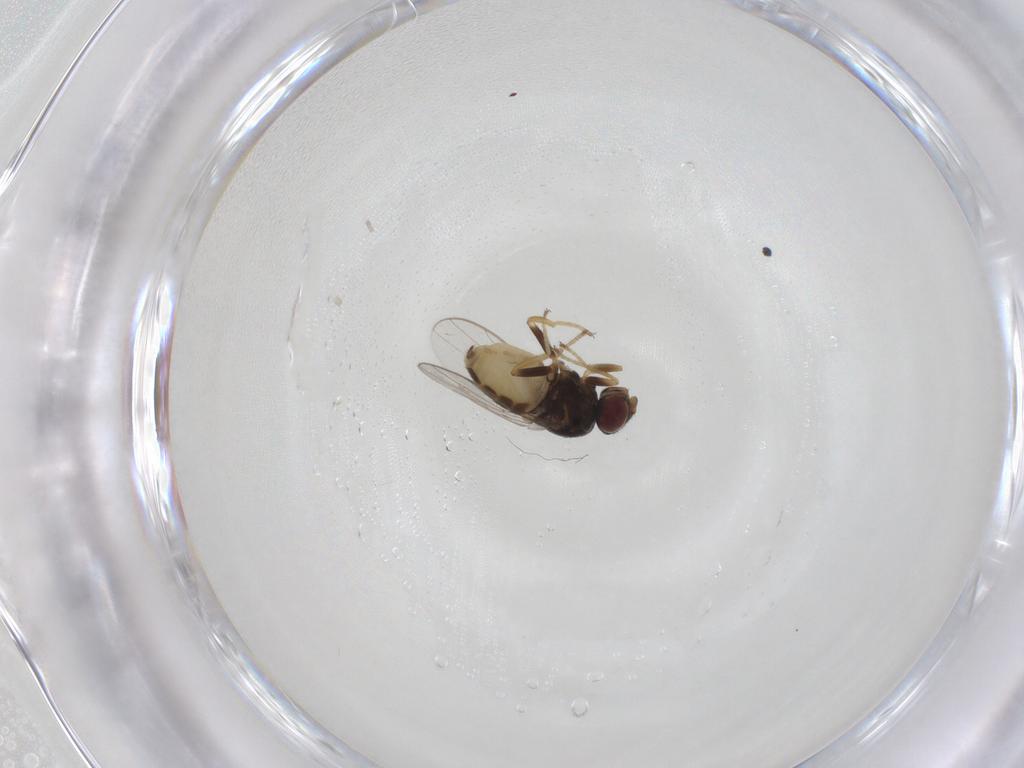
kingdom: Animalia
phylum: Arthropoda
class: Insecta
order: Diptera
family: Chloropidae
